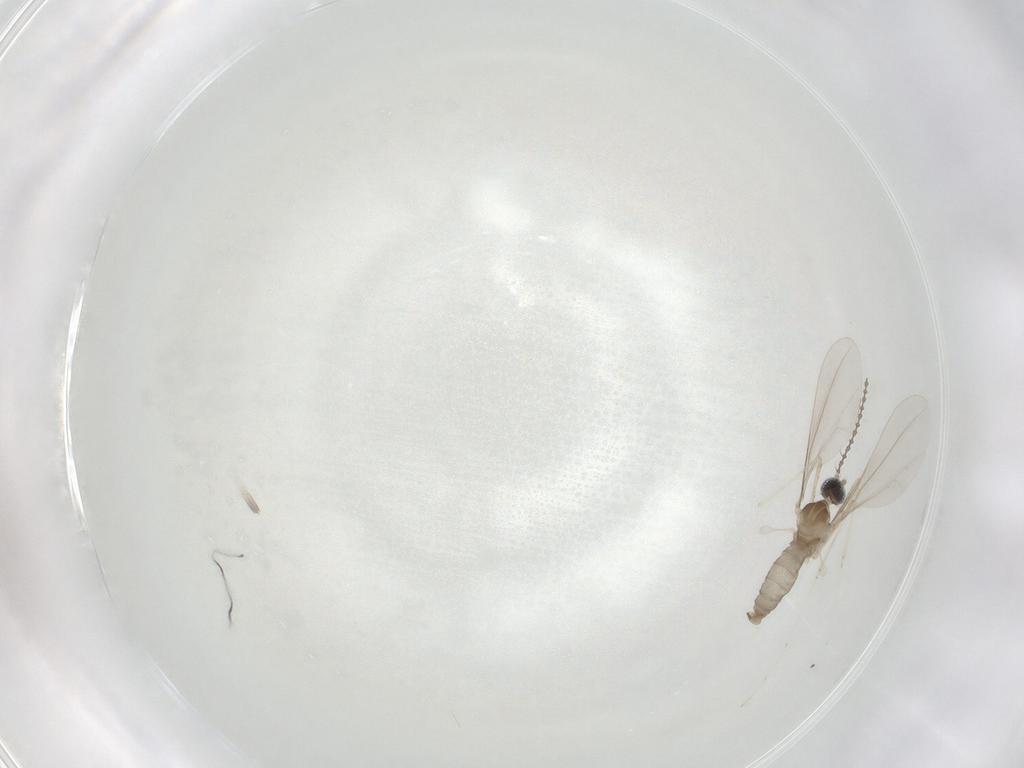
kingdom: Animalia
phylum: Arthropoda
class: Insecta
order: Diptera
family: Cecidomyiidae
